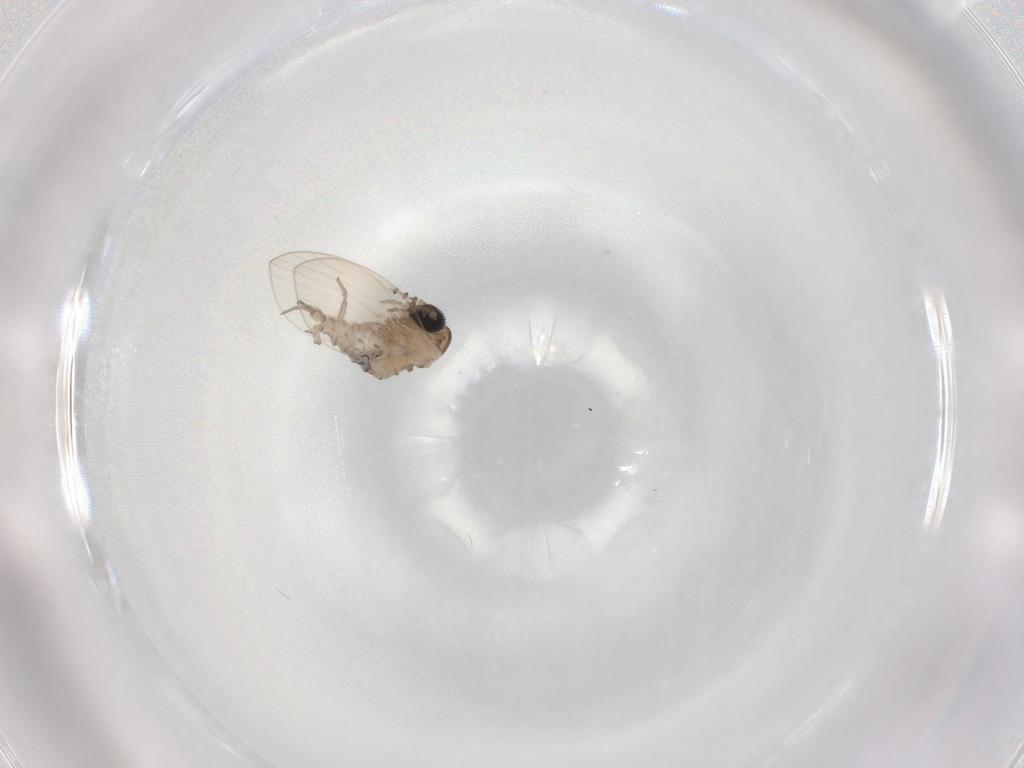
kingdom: Animalia
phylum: Arthropoda
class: Insecta
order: Diptera
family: Psychodidae
